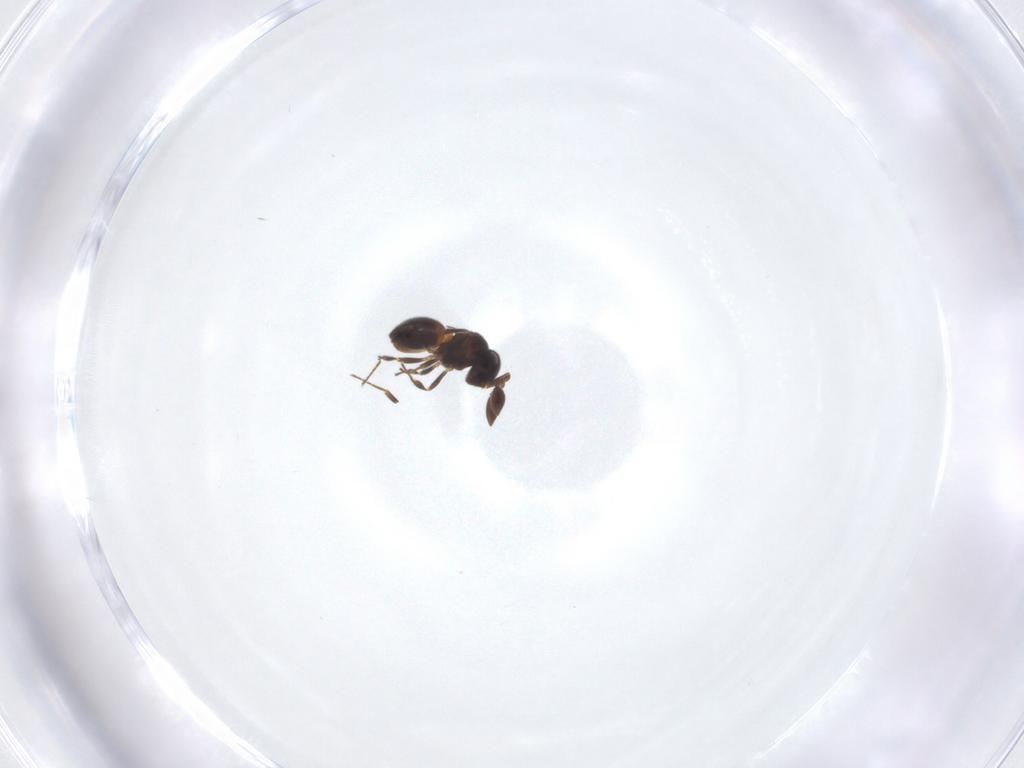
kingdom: Animalia
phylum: Arthropoda
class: Insecta
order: Hymenoptera
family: Scelionidae
